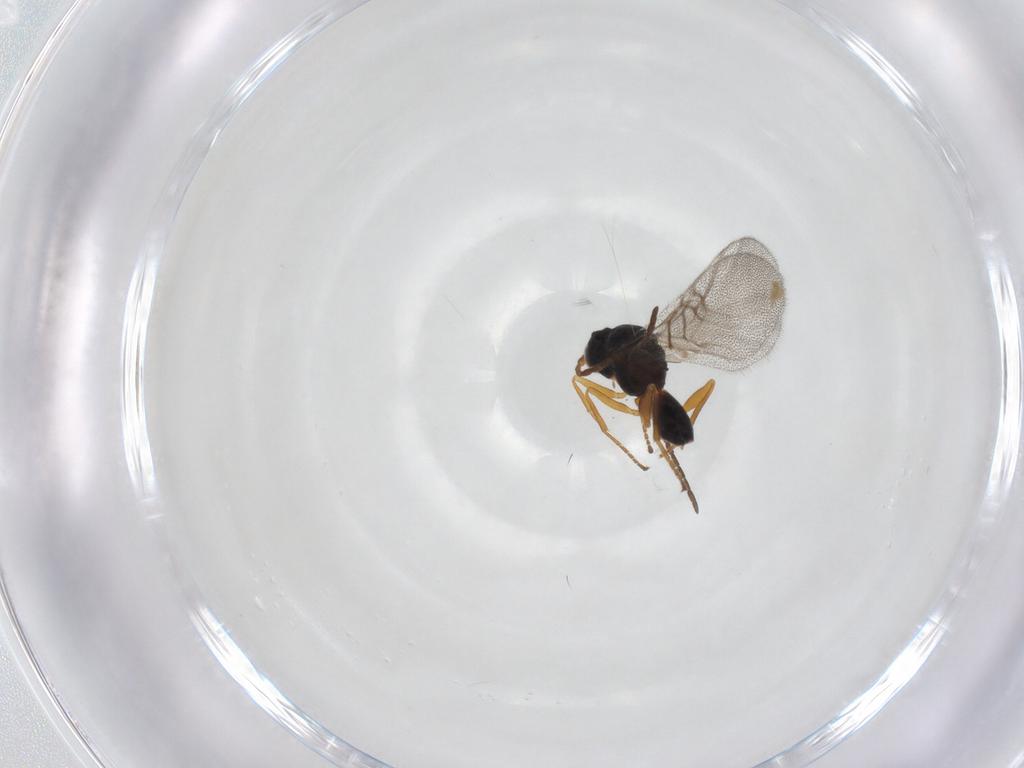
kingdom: Animalia
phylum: Arthropoda
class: Insecta
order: Hymenoptera
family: Cynipidae
